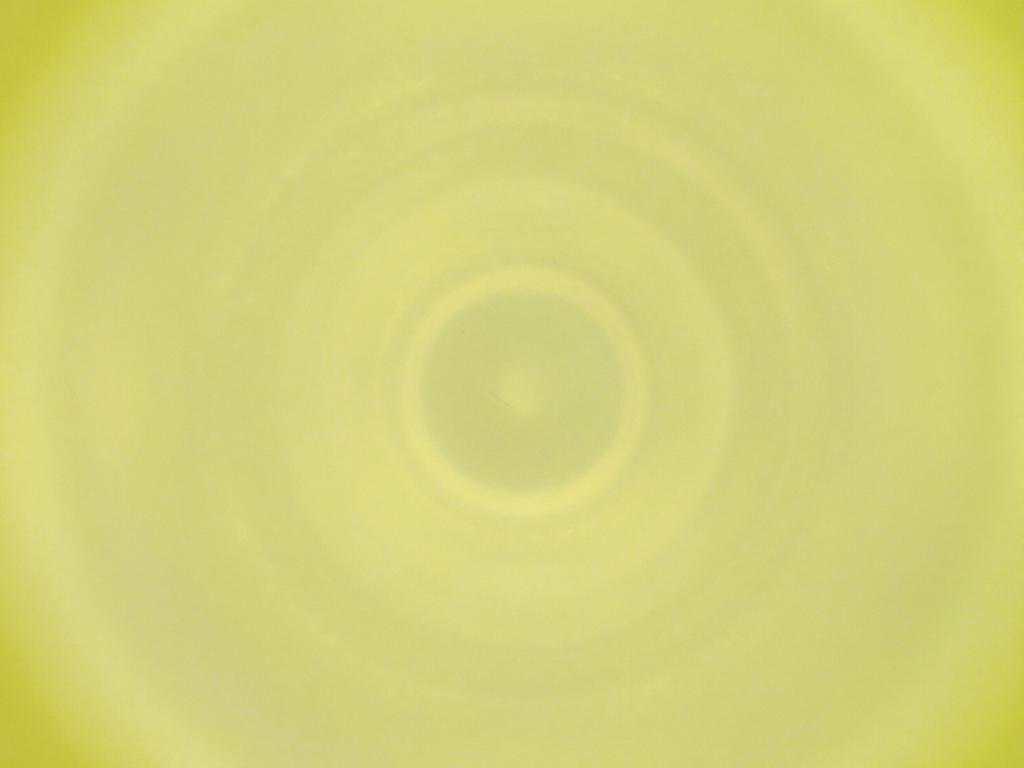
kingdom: Animalia
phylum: Arthropoda
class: Insecta
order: Diptera
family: Cecidomyiidae
